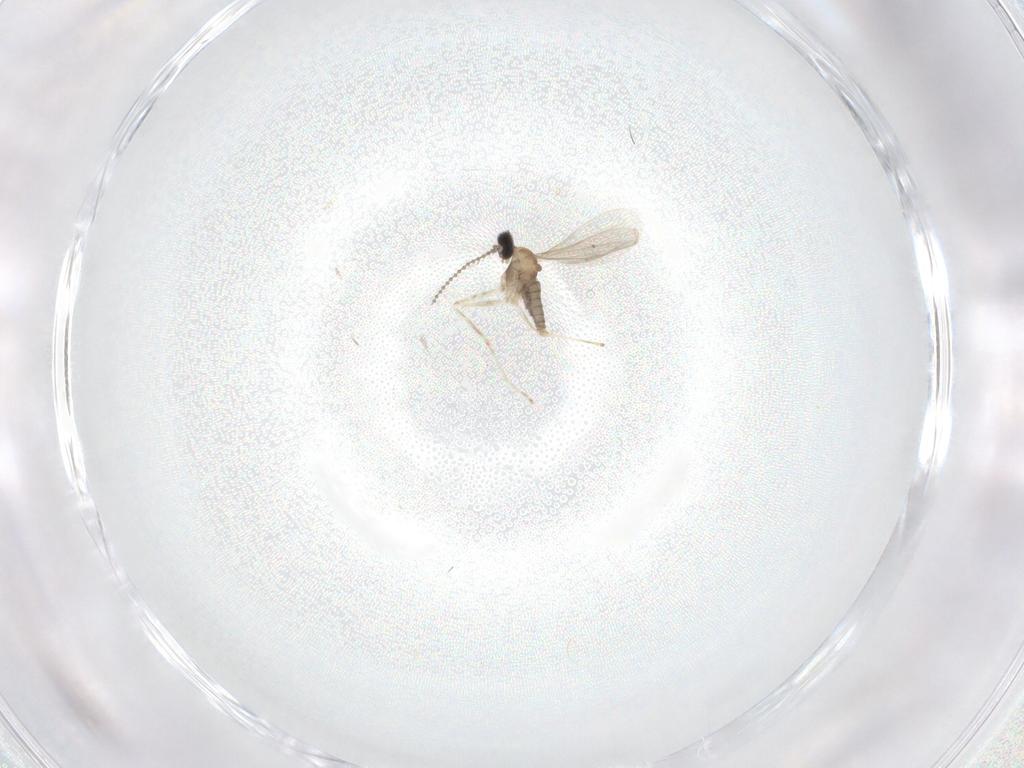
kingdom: Animalia
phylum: Arthropoda
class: Insecta
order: Diptera
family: Cecidomyiidae
